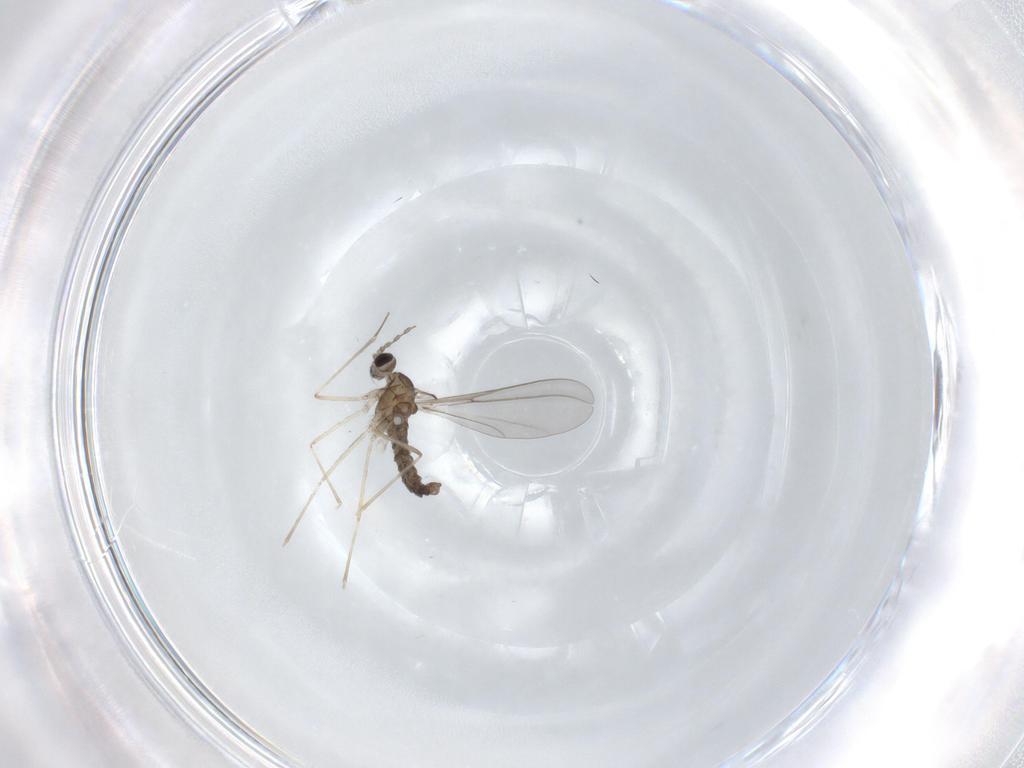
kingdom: Animalia
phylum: Arthropoda
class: Insecta
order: Diptera
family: Cecidomyiidae
